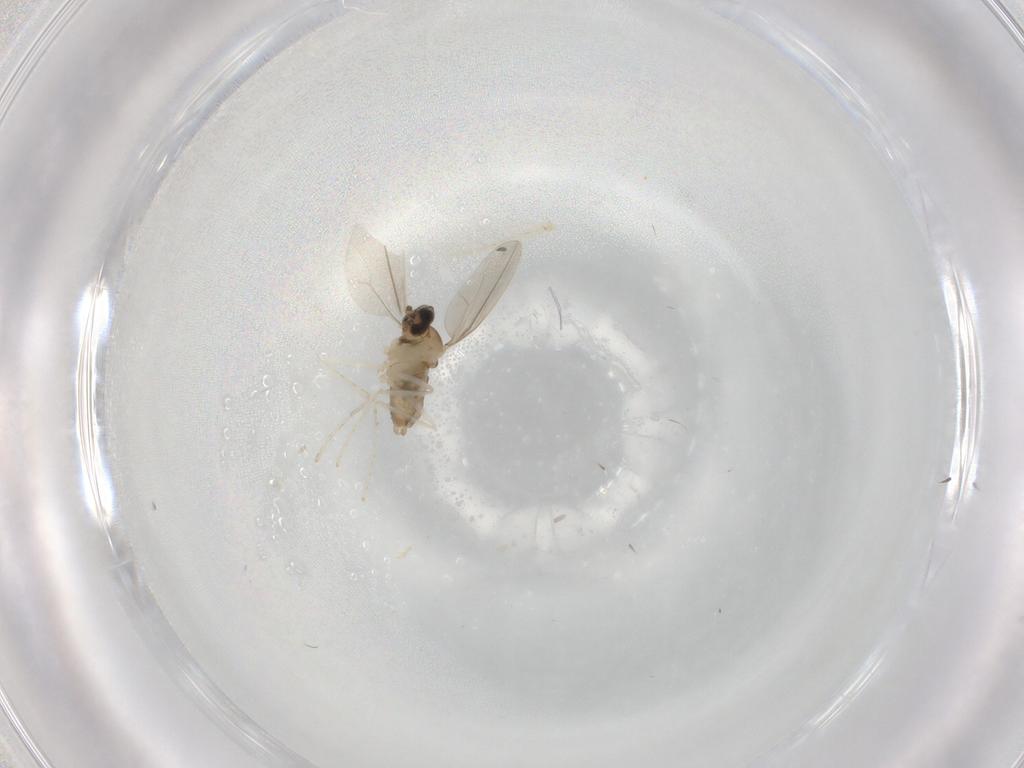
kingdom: Animalia
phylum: Arthropoda
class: Insecta
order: Diptera
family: Cecidomyiidae
